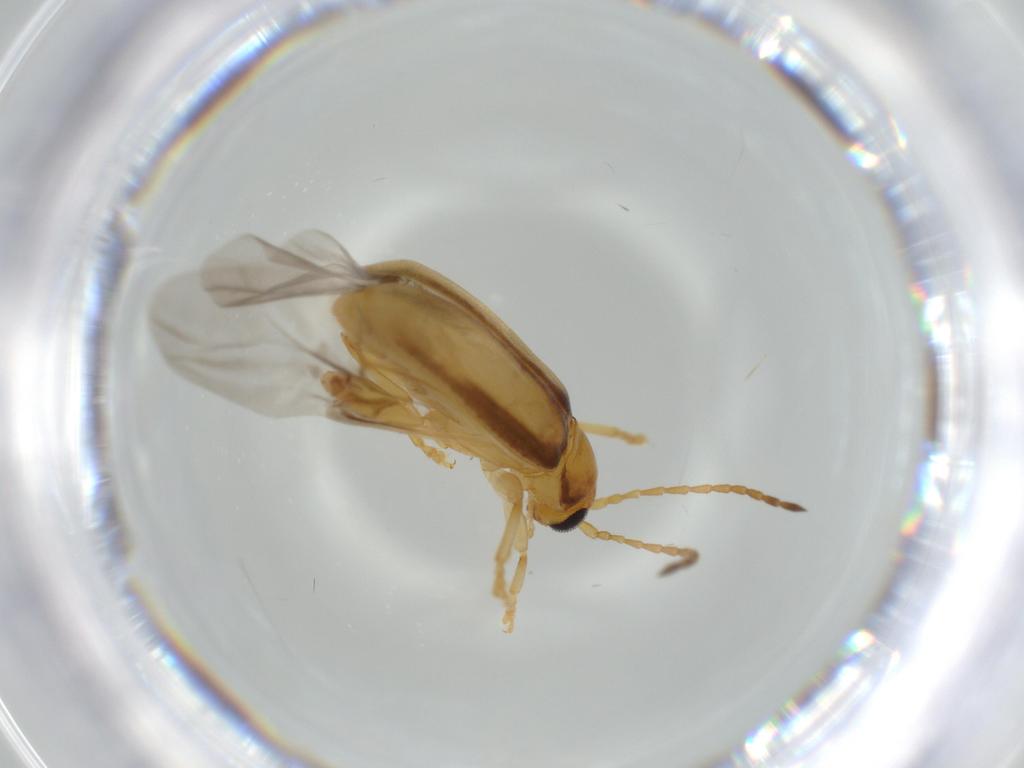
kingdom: Animalia
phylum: Arthropoda
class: Insecta
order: Coleoptera
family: Chrysomelidae
